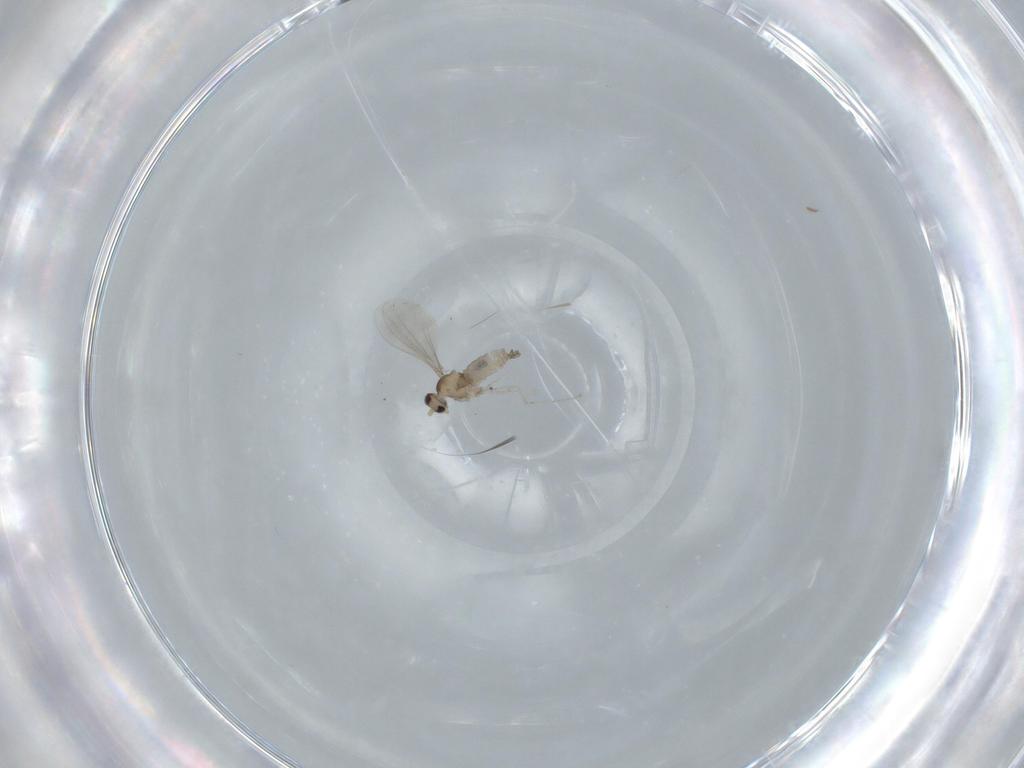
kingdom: Animalia
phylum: Arthropoda
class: Insecta
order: Diptera
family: Cecidomyiidae
